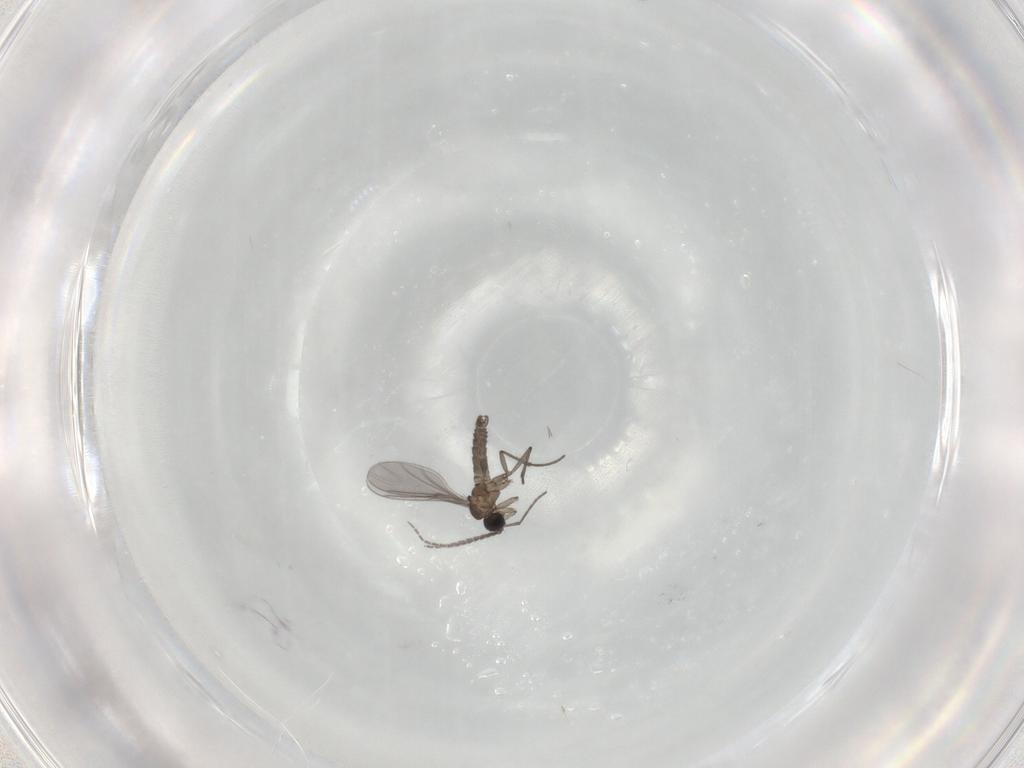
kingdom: Animalia
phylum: Arthropoda
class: Insecta
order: Diptera
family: Sciaridae
